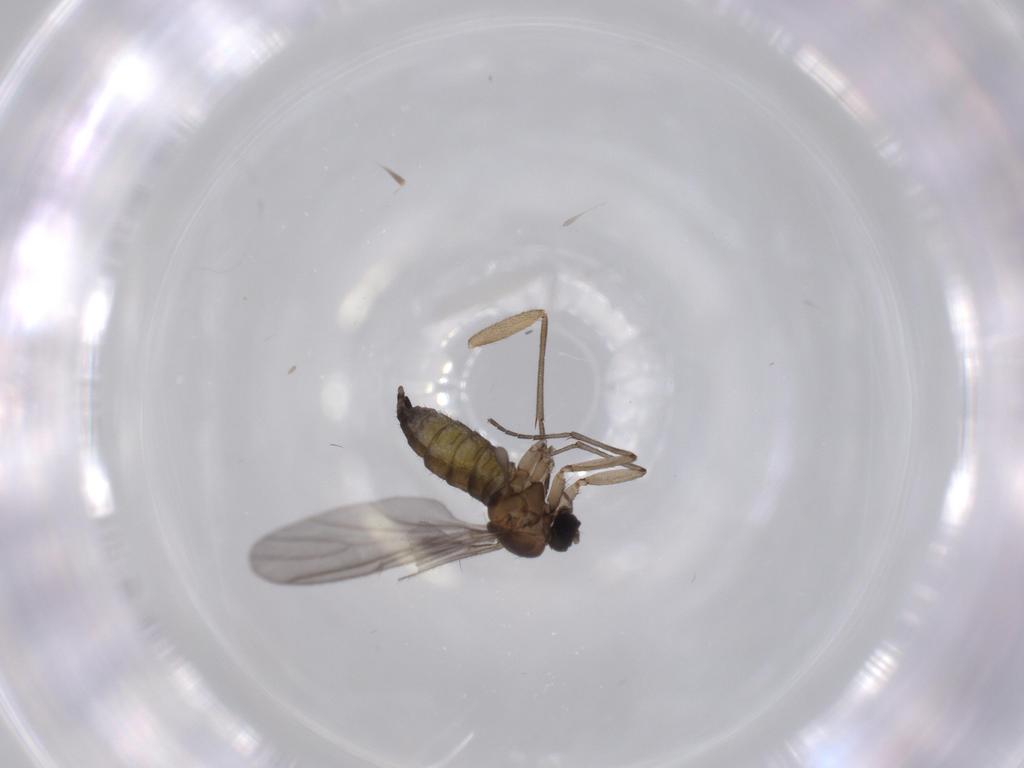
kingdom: Animalia
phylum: Arthropoda
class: Insecta
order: Diptera
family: Sciaridae
